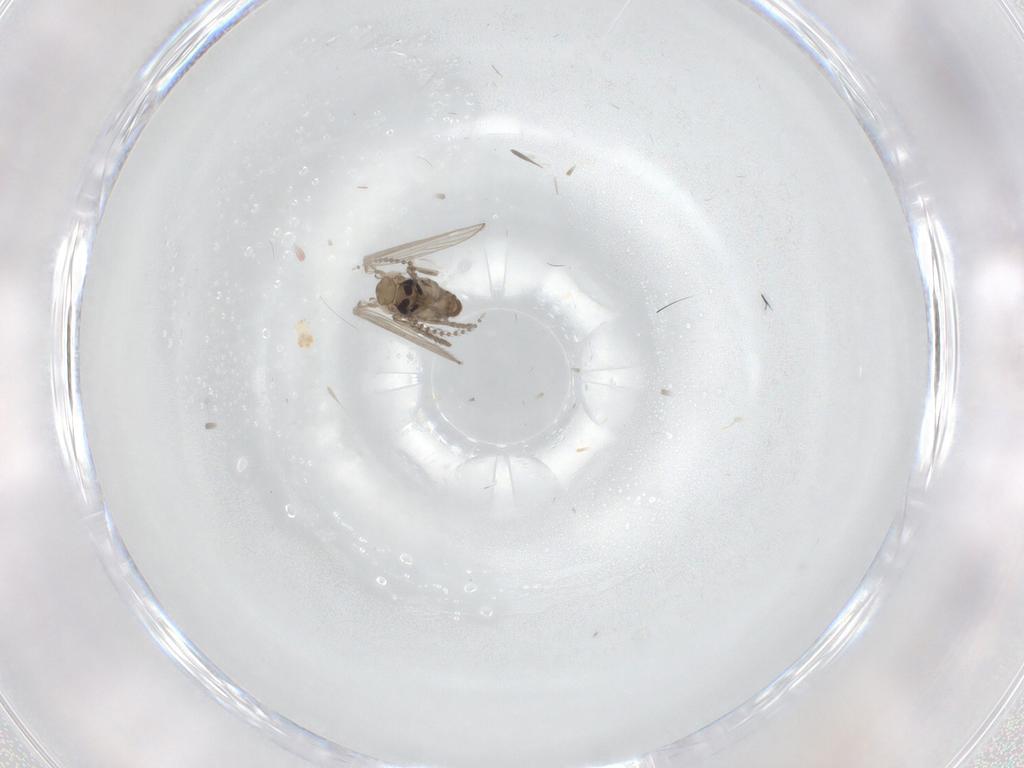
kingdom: Animalia
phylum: Arthropoda
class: Insecta
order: Diptera
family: Psychodidae
